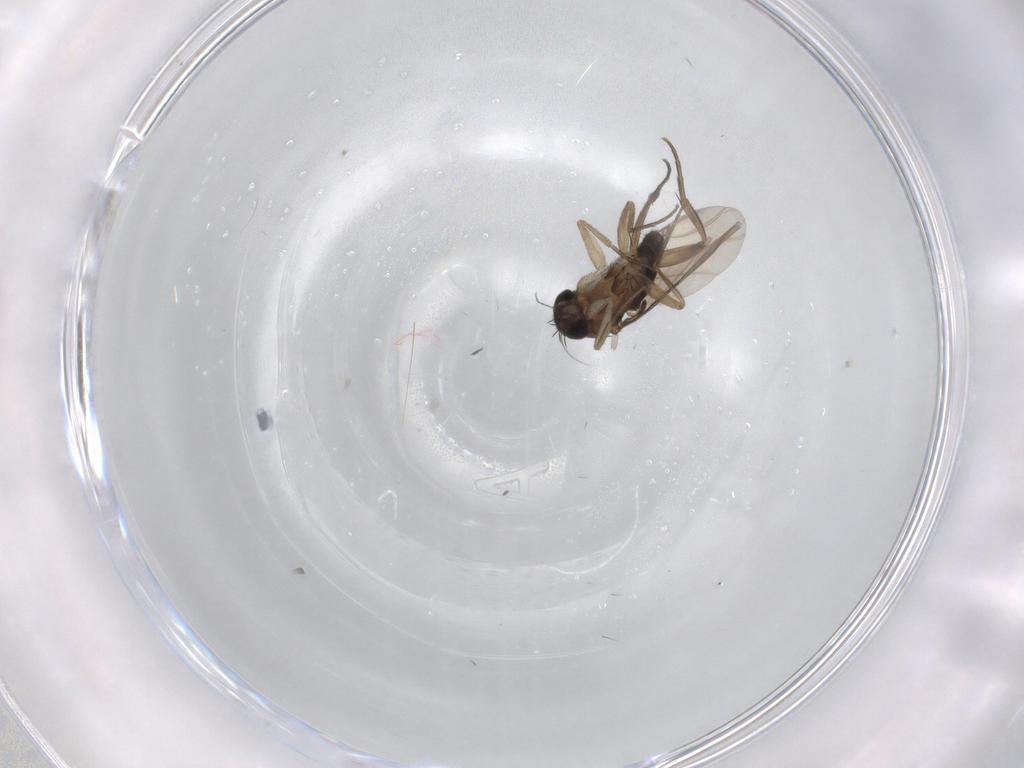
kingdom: Animalia
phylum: Arthropoda
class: Insecta
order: Diptera
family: Phoridae
